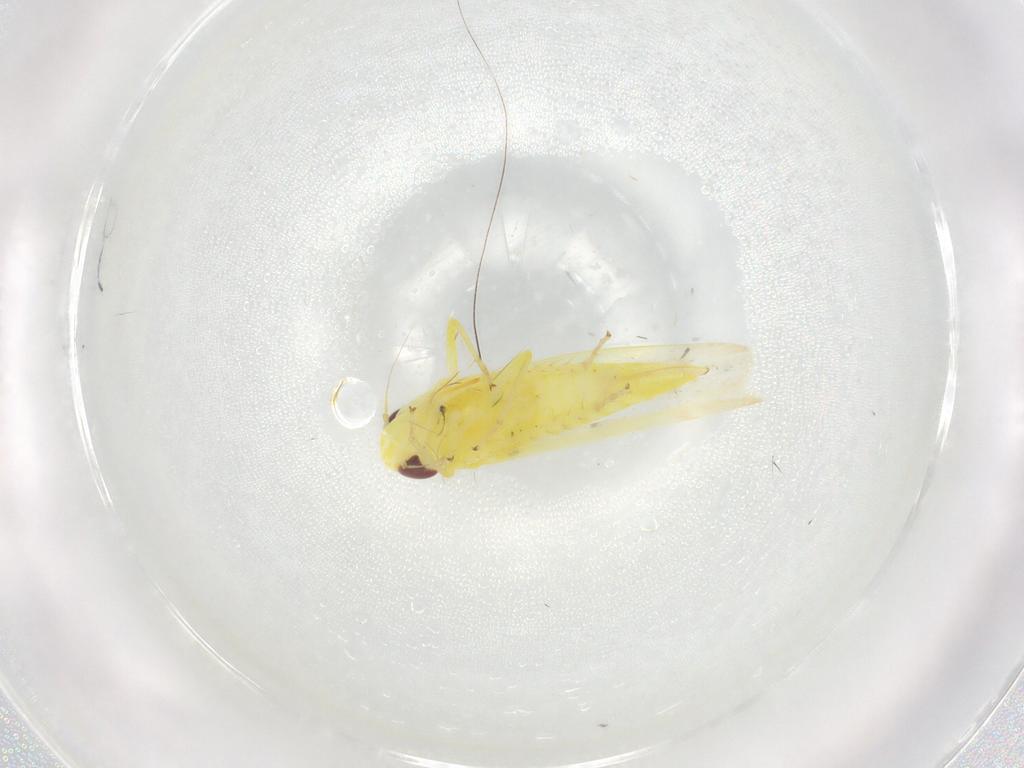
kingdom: Animalia
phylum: Arthropoda
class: Insecta
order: Hemiptera
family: Cicadellidae
